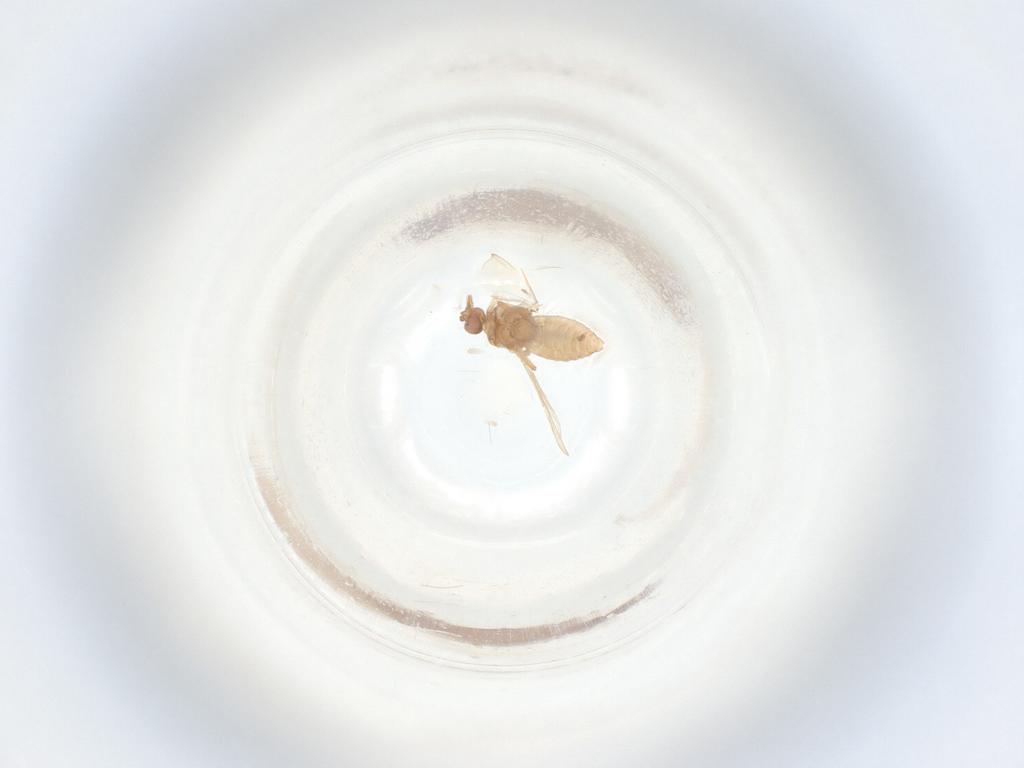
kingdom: Animalia
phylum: Arthropoda
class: Insecta
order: Diptera
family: Ceratopogonidae
